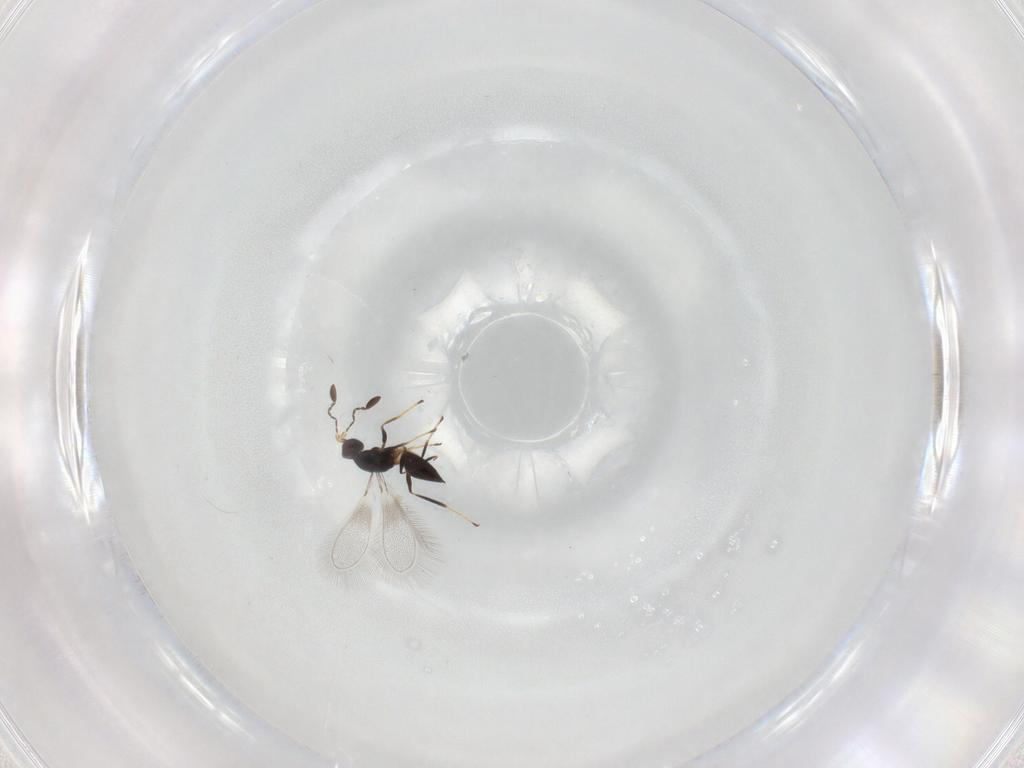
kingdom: Animalia
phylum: Arthropoda
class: Insecta
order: Hymenoptera
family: Mymaridae
